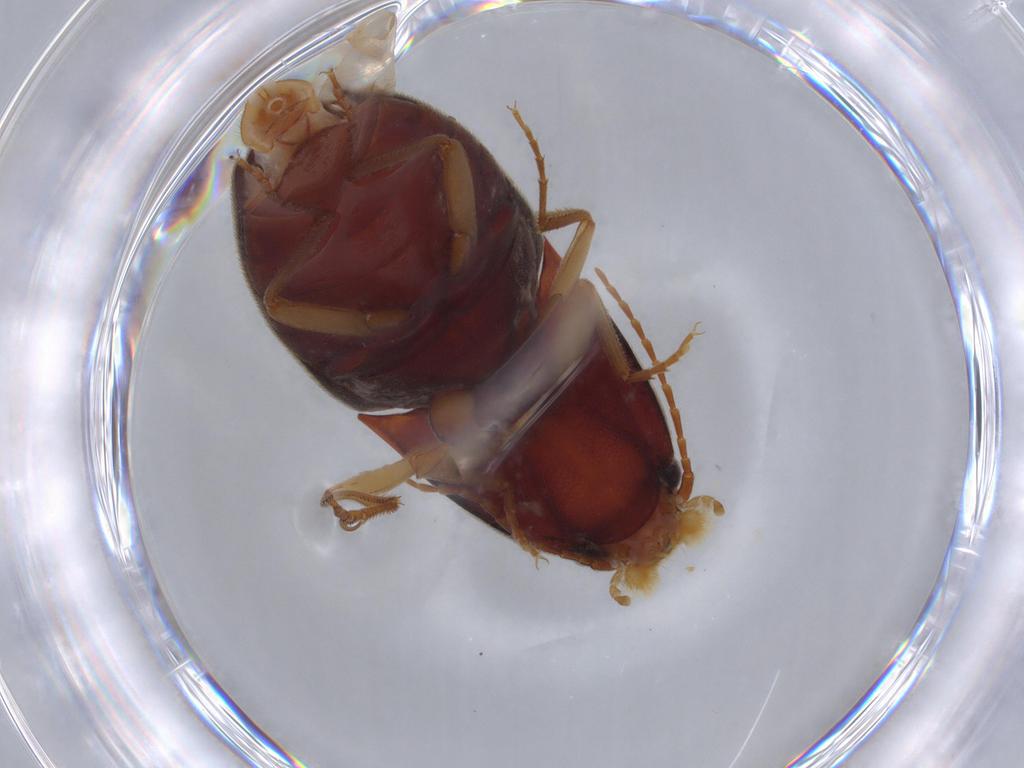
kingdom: Animalia
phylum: Arthropoda
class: Insecta
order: Coleoptera
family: Elateridae
